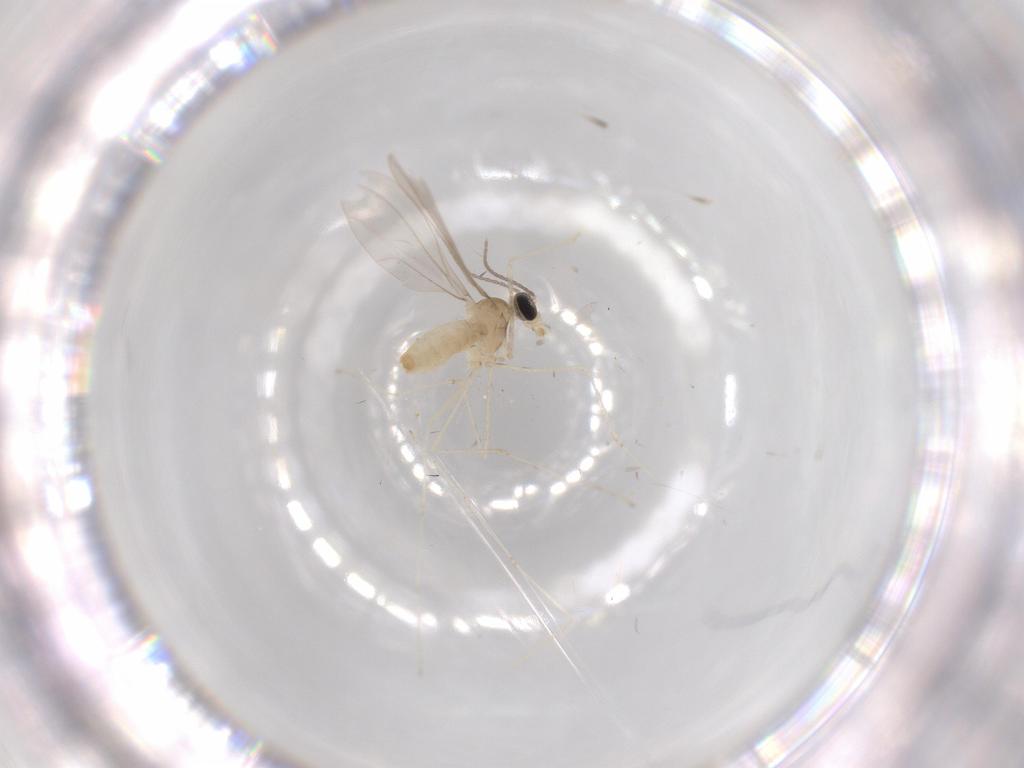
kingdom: Animalia
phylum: Arthropoda
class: Insecta
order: Diptera
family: Cecidomyiidae
